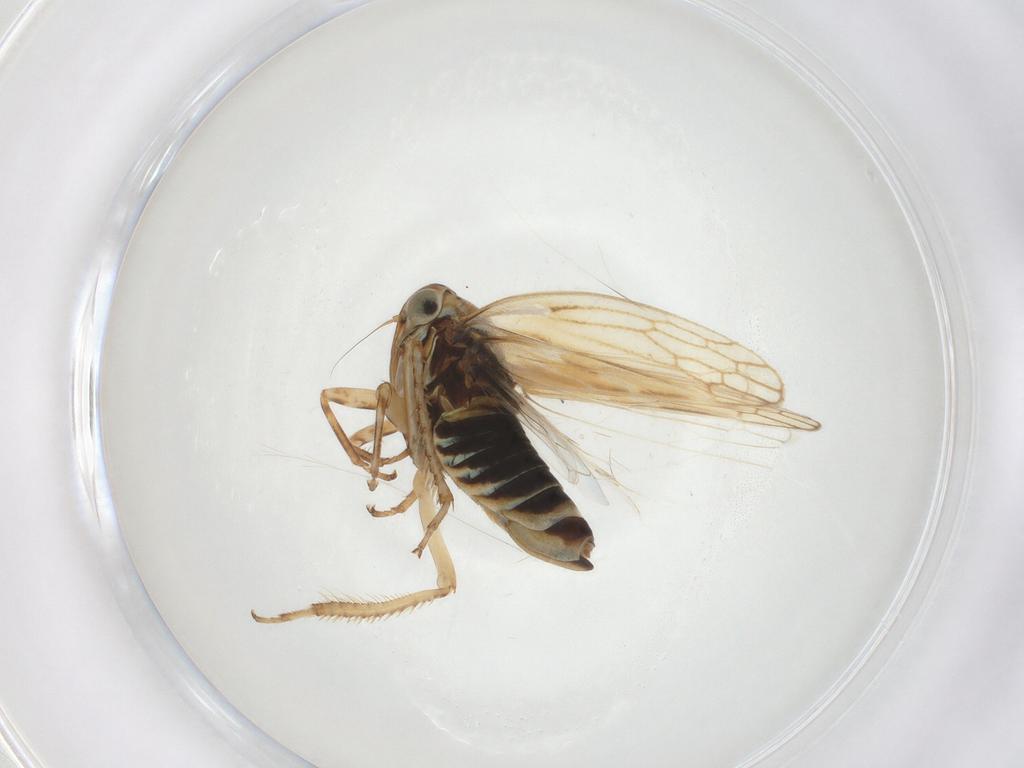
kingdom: Animalia
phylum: Arthropoda
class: Insecta
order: Hemiptera
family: Cicadellidae
